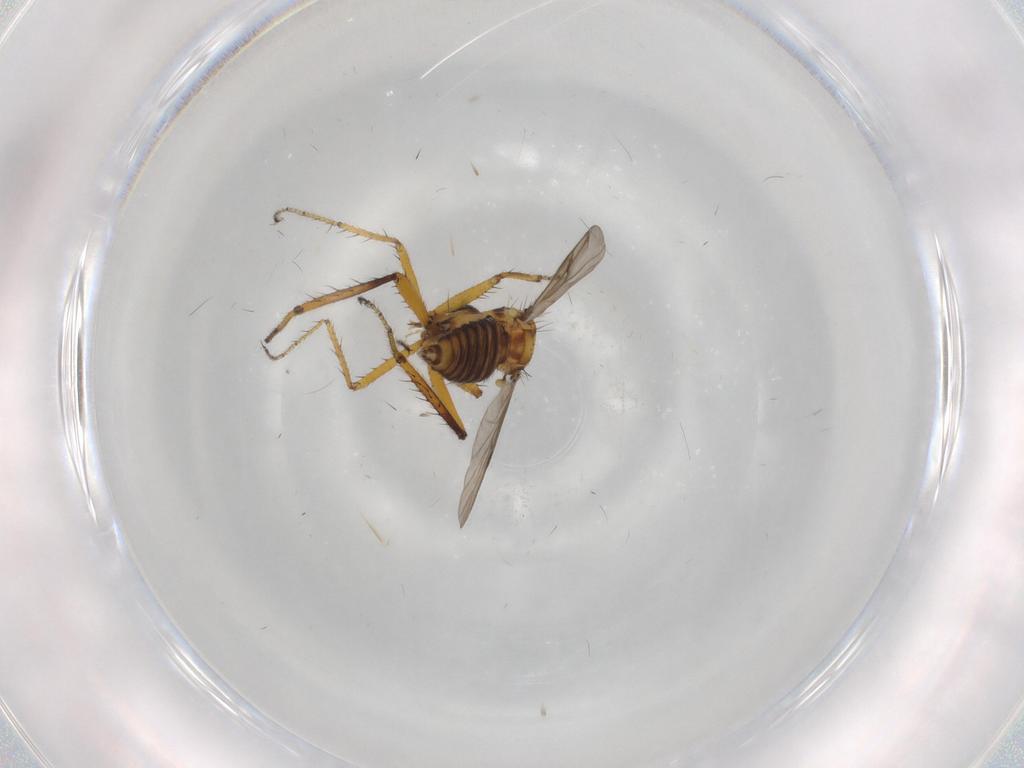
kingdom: Animalia
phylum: Arthropoda
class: Insecta
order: Diptera
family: Ceratopogonidae
